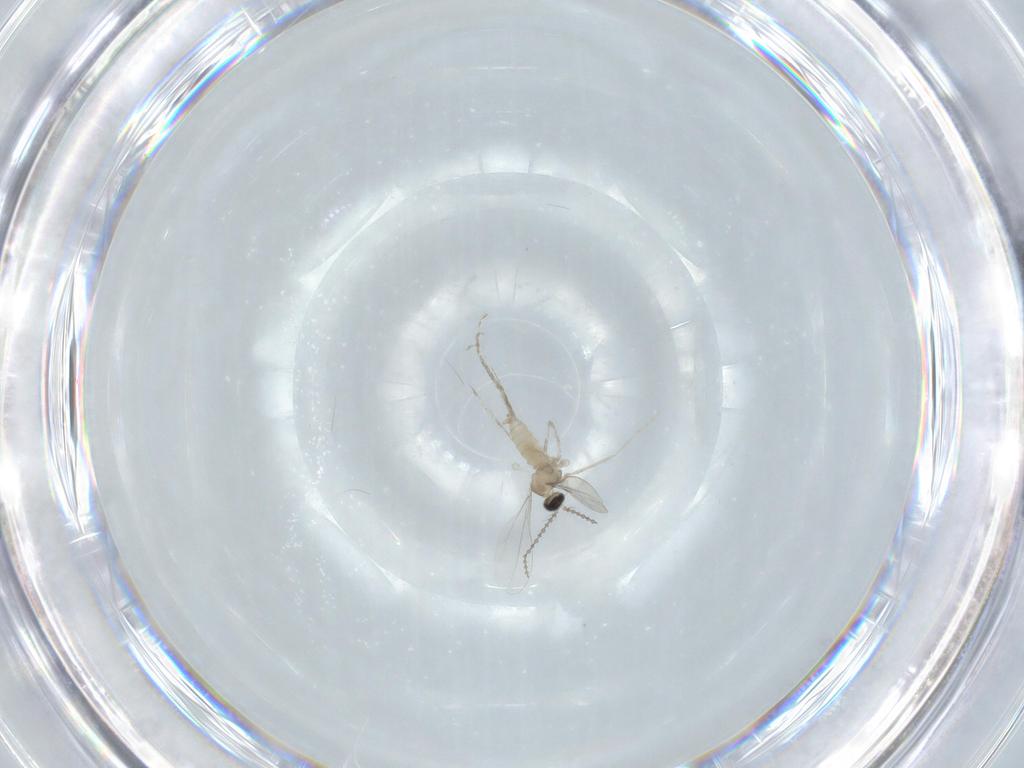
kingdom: Animalia
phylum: Arthropoda
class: Insecta
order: Diptera
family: Cecidomyiidae
